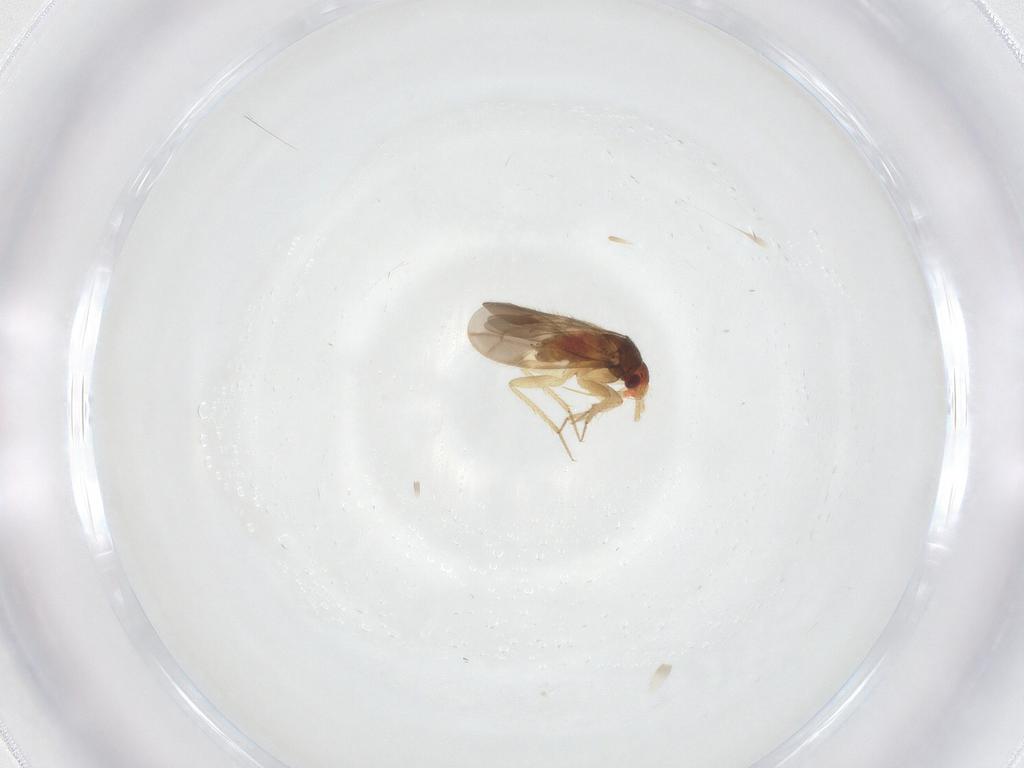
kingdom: Animalia
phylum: Arthropoda
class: Insecta
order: Hemiptera
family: Ceratocombidae
